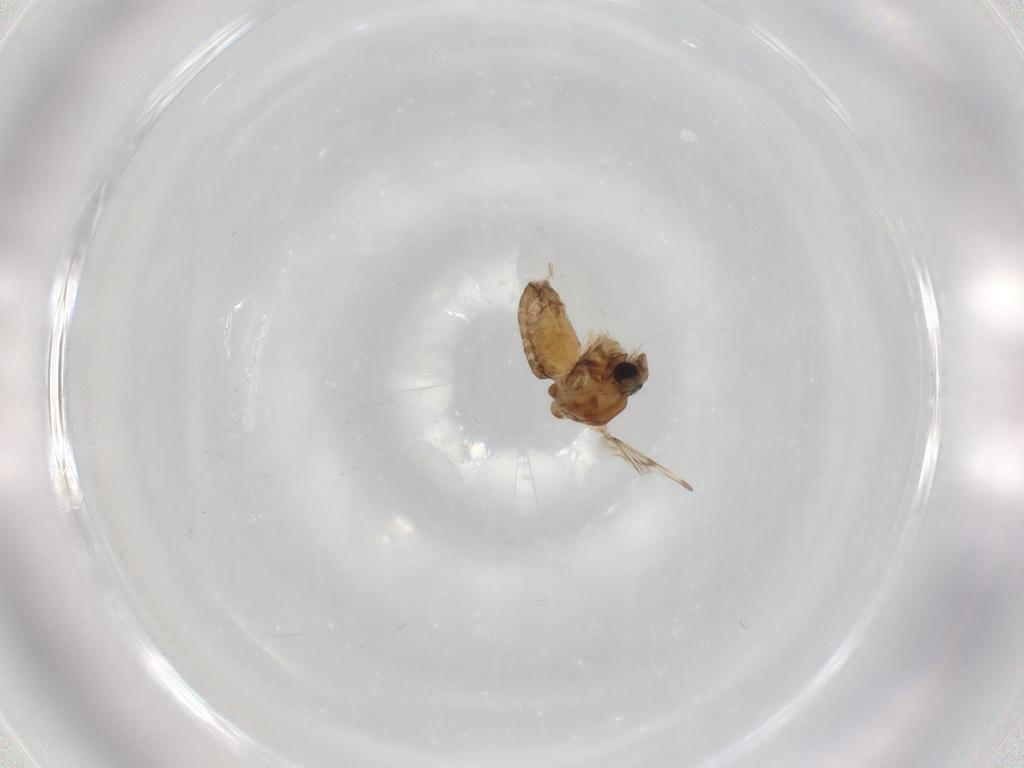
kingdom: Animalia
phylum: Arthropoda
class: Insecta
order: Diptera
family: Chironomidae
